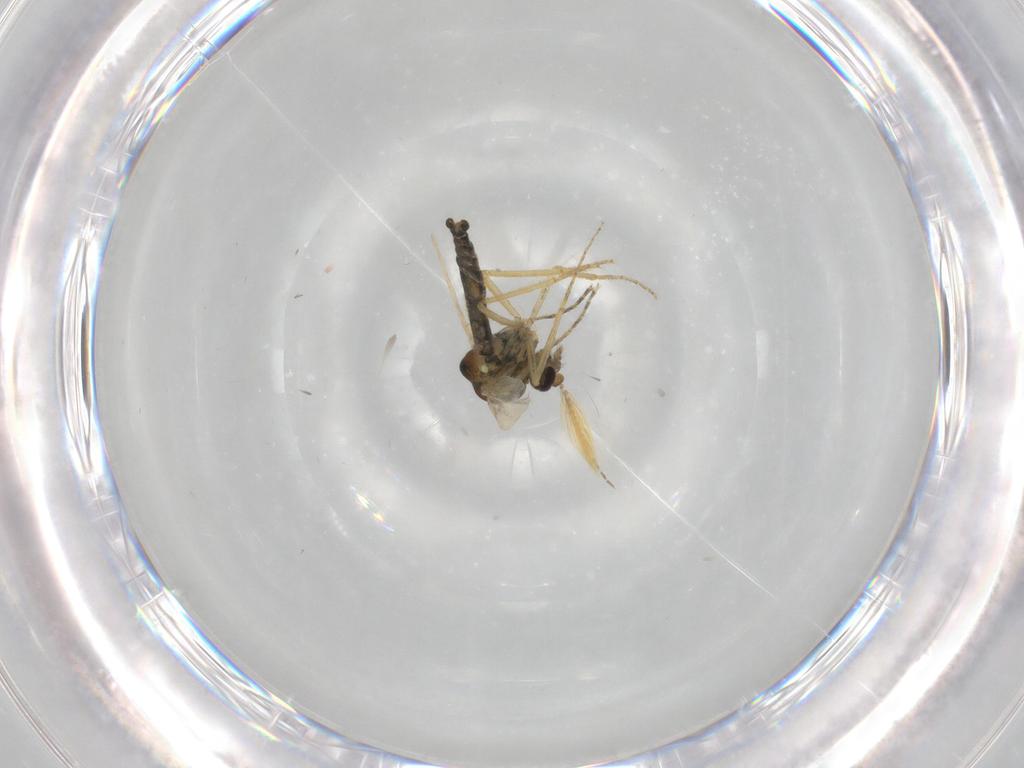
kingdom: Animalia
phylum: Arthropoda
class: Insecta
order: Diptera
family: Ceratopogonidae
